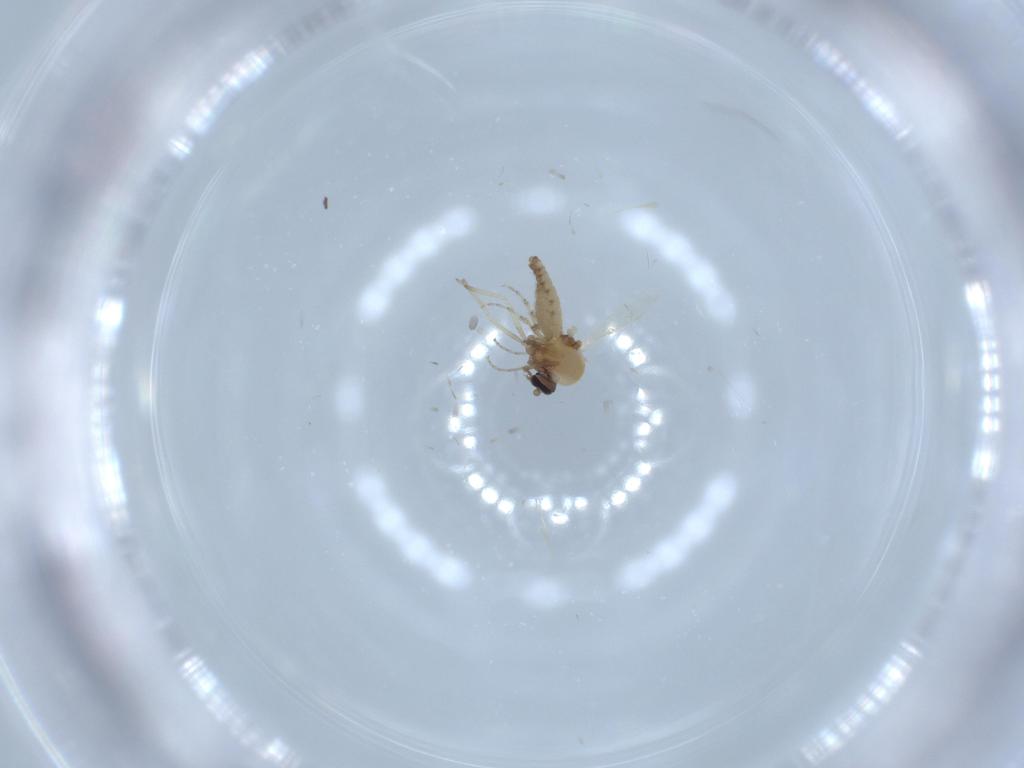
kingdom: Animalia
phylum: Arthropoda
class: Insecta
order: Diptera
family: Ceratopogonidae
